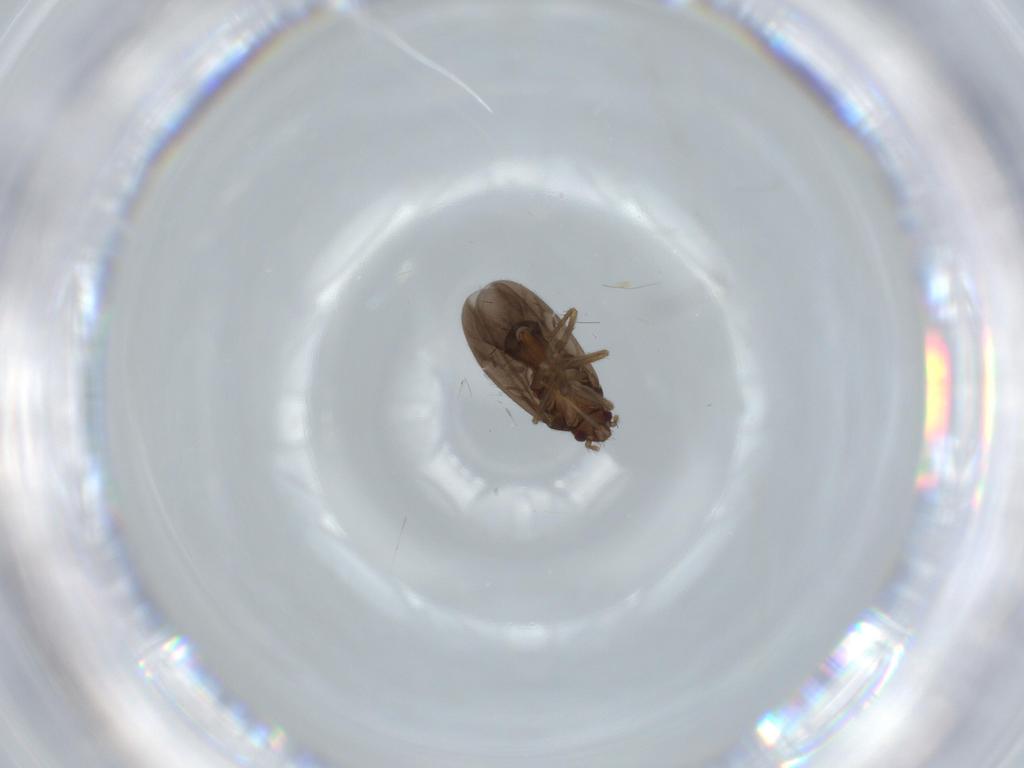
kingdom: Animalia
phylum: Arthropoda
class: Insecta
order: Hemiptera
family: Ceratocombidae
